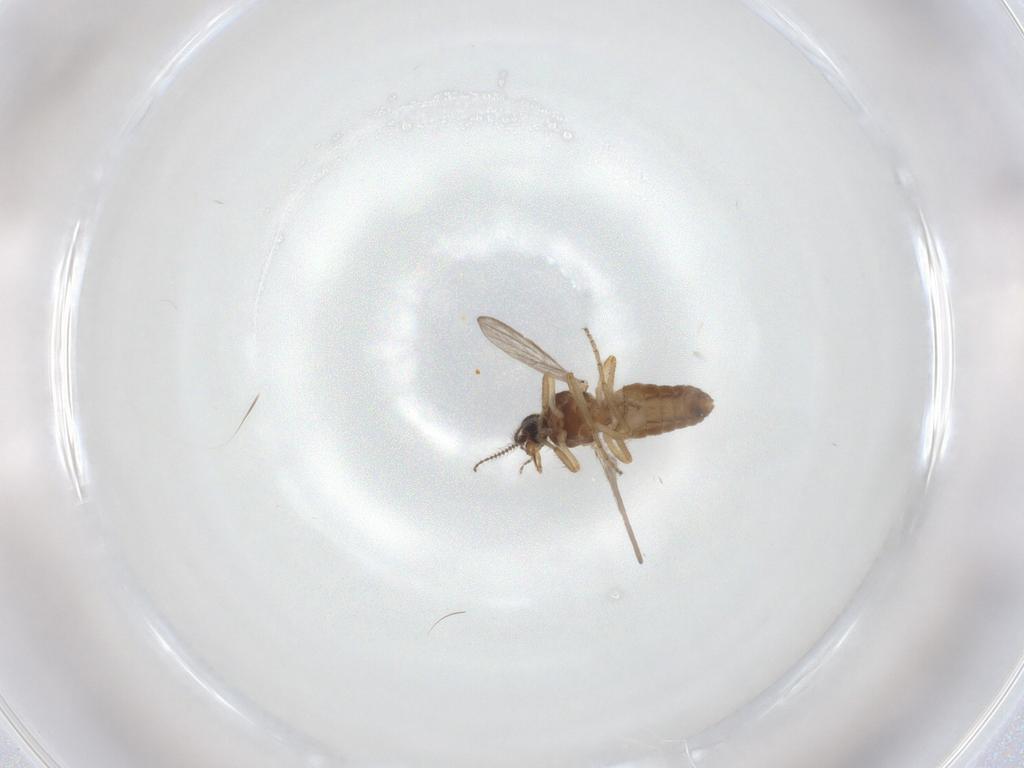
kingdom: Animalia
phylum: Arthropoda
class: Insecta
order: Diptera
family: Ceratopogonidae
